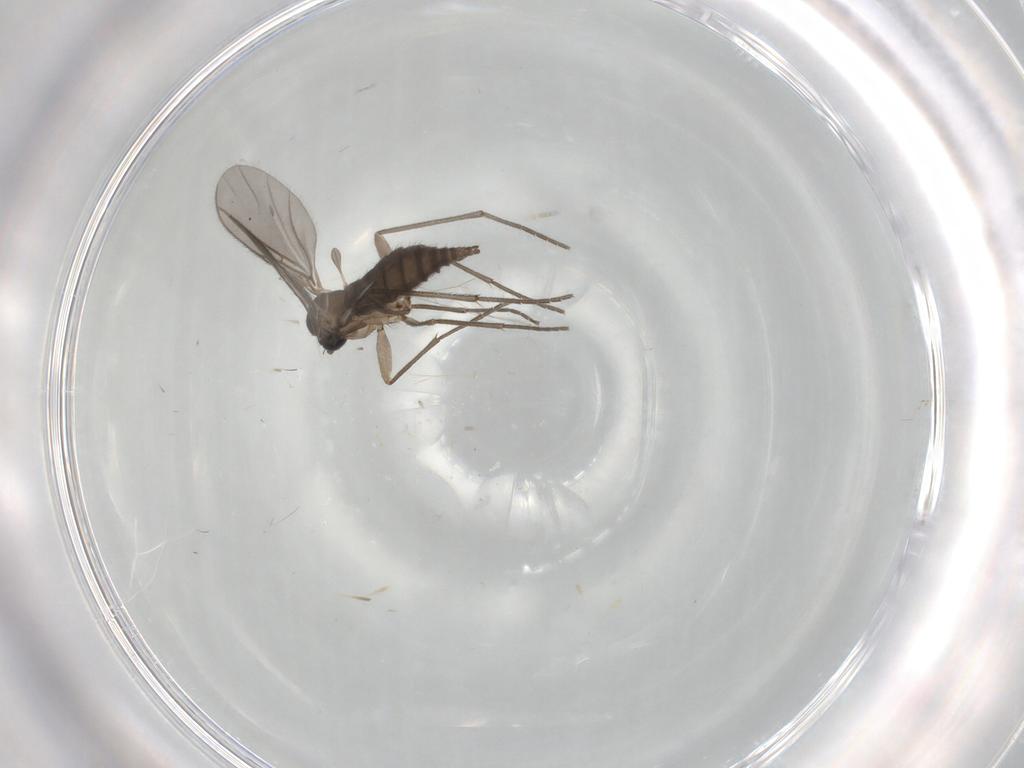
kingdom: Animalia
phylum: Arthropoda
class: Insecta
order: Diptera
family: Sciaridae
